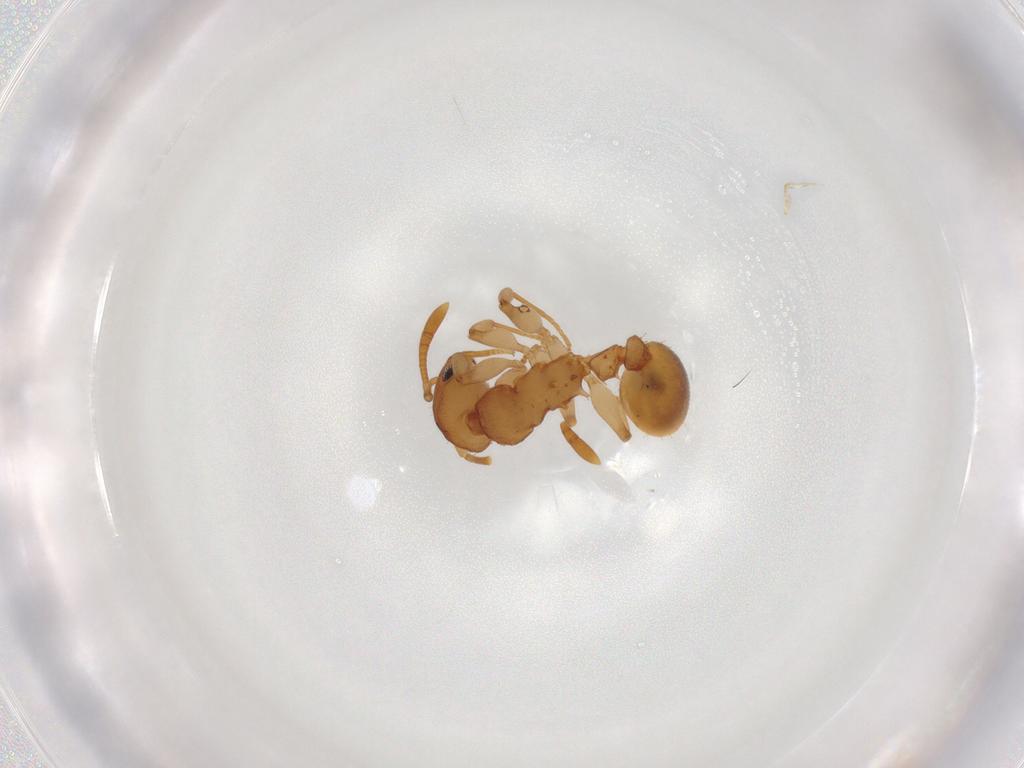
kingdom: Animalia
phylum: Arthropoda
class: Insecta
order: Hymenoptera
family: Formicidae
